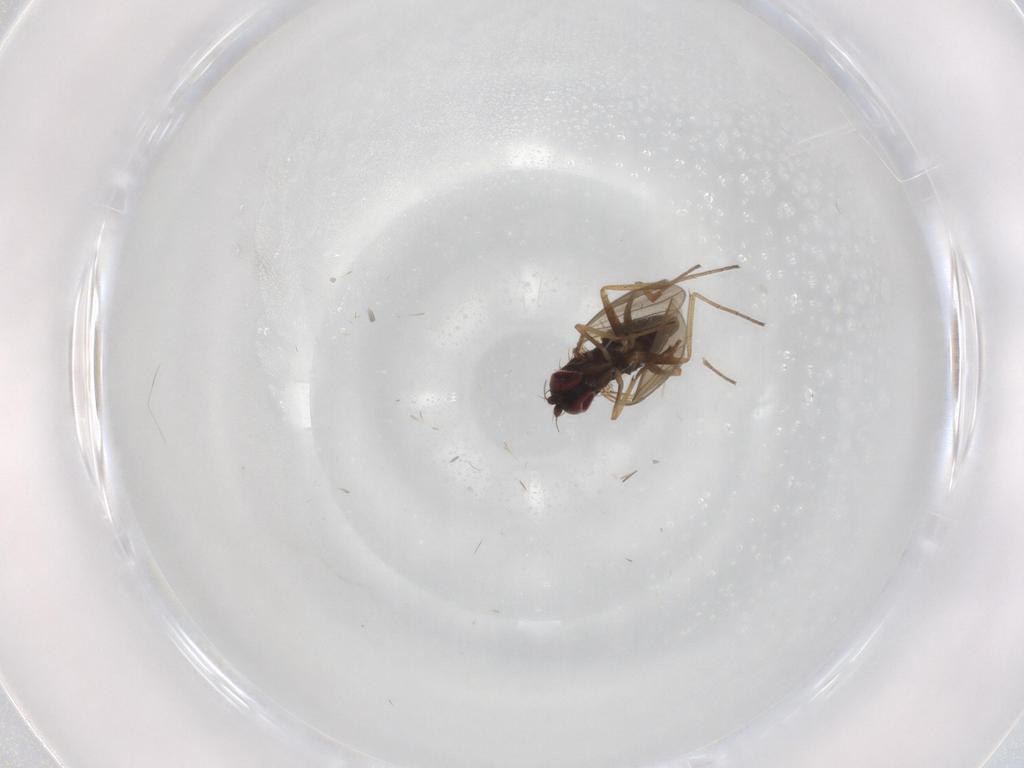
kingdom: Animalia
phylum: Arthropoda
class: Insecta
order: Diptera
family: Dolichopodidae
